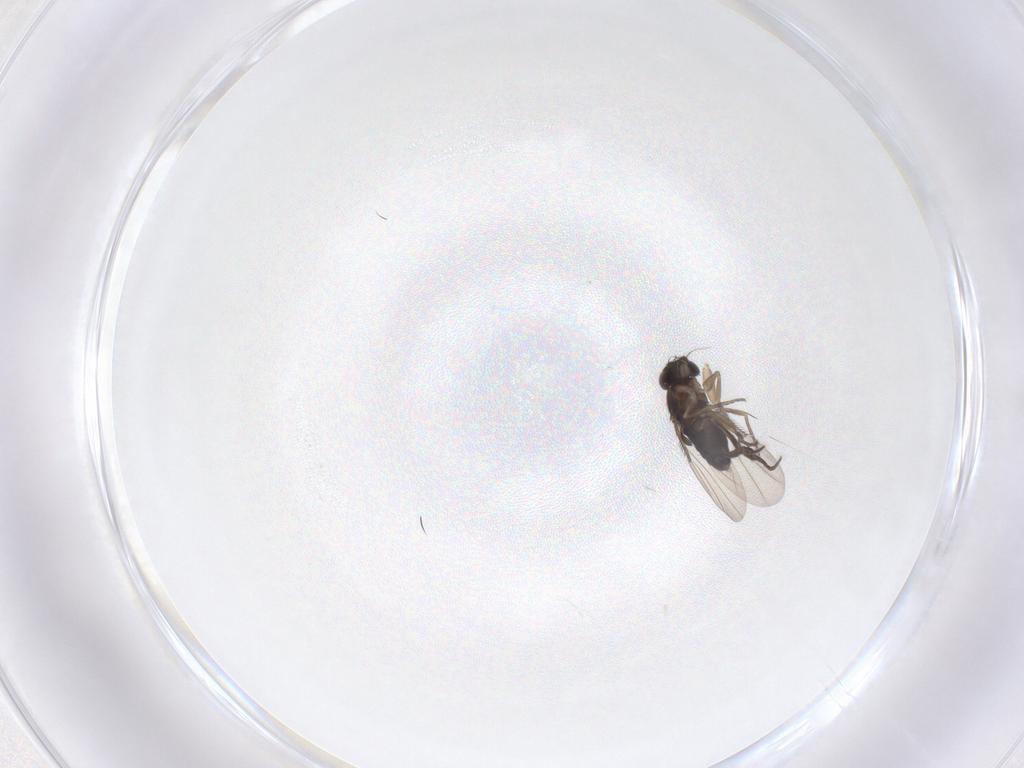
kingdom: Animalia
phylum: Arthropoda
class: Insecta
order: Diptera
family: Phoridae
